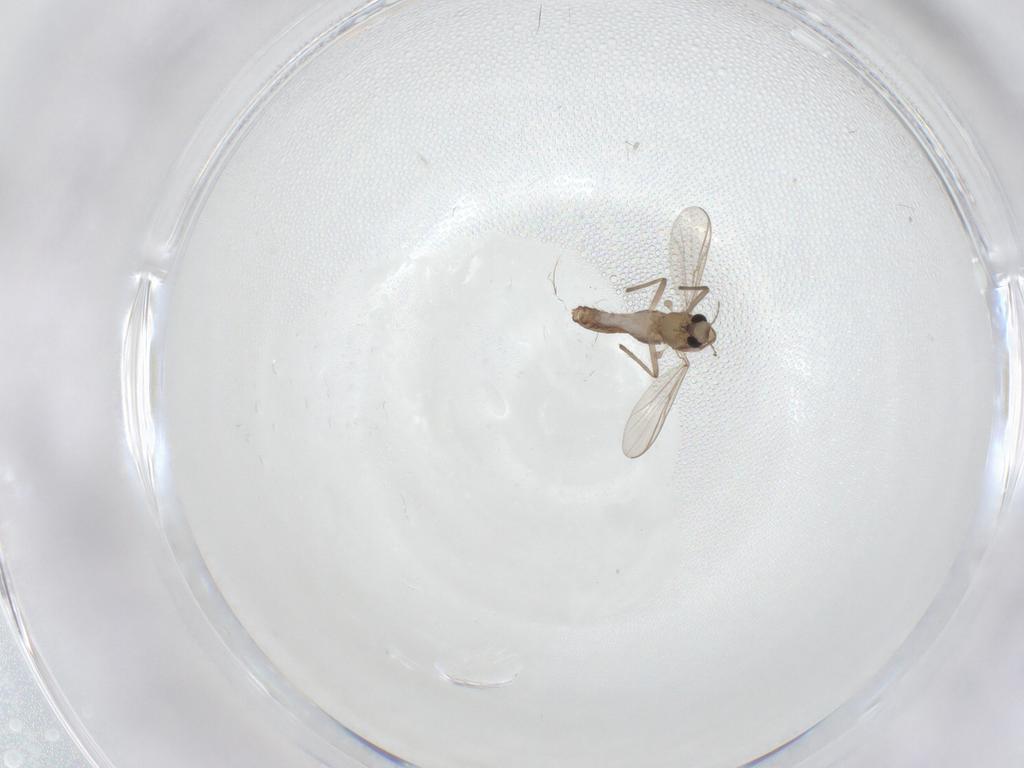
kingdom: Animalia
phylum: Arthropoda
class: Insecta
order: Diptera
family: Chironomidae
